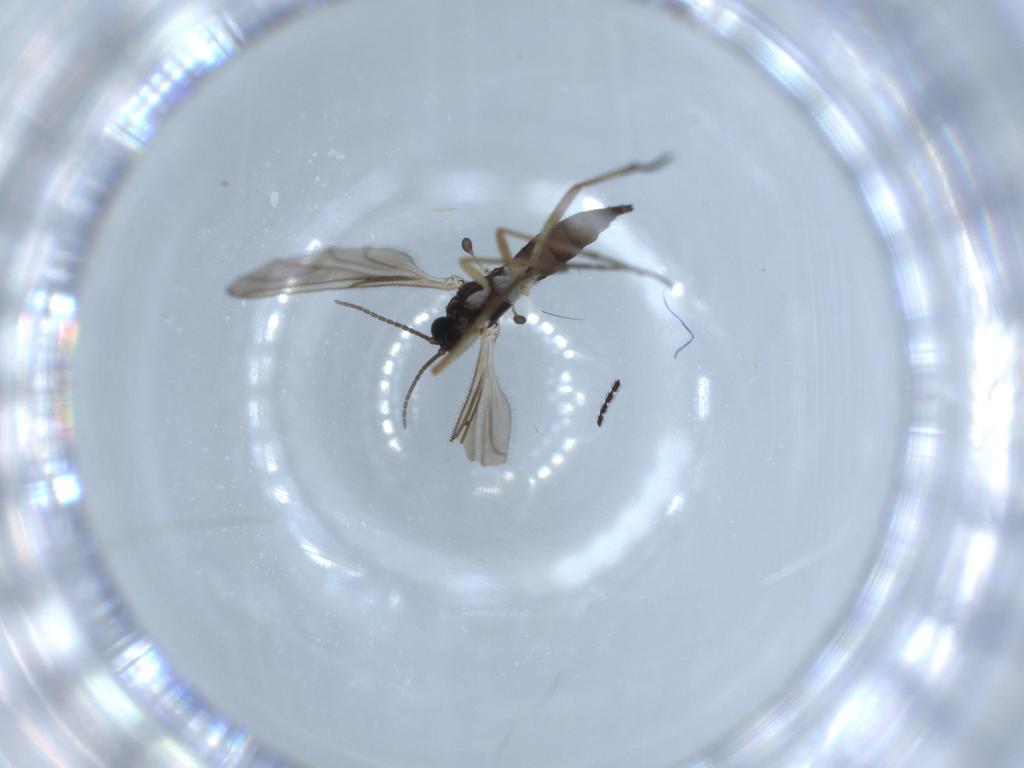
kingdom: Animalia
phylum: Arthropoda
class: Insecta
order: Diptera
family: Sciaridae
